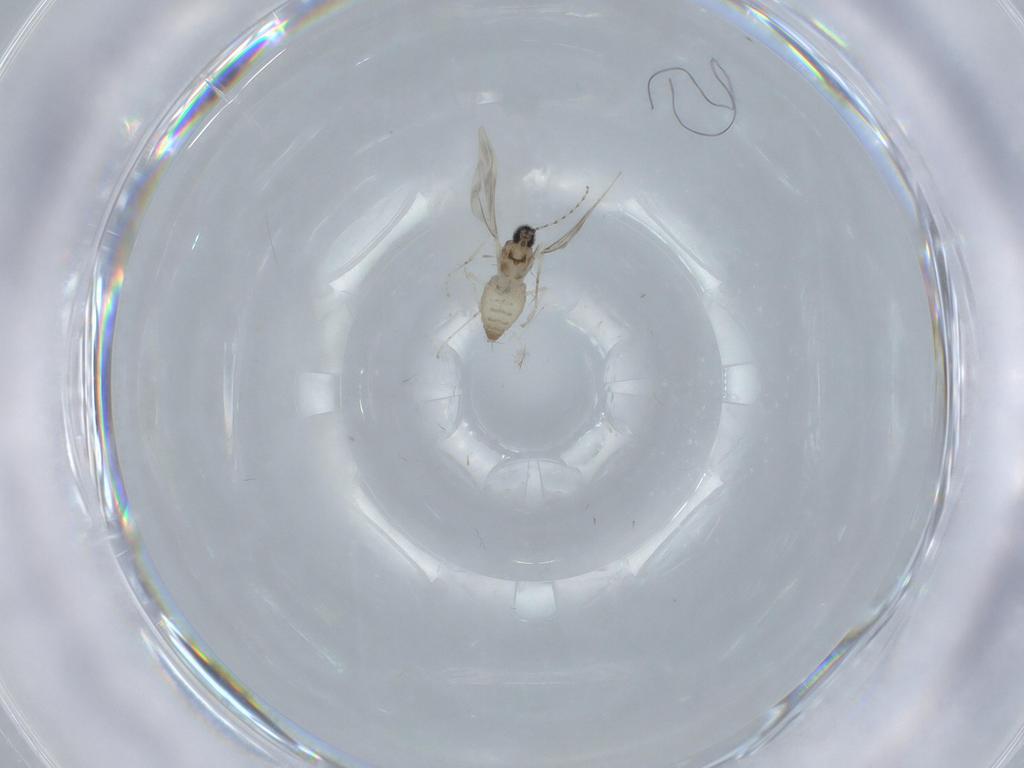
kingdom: Animalia
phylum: Arthropoda
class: Insecta
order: Diptera
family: Cecidomyiidae
